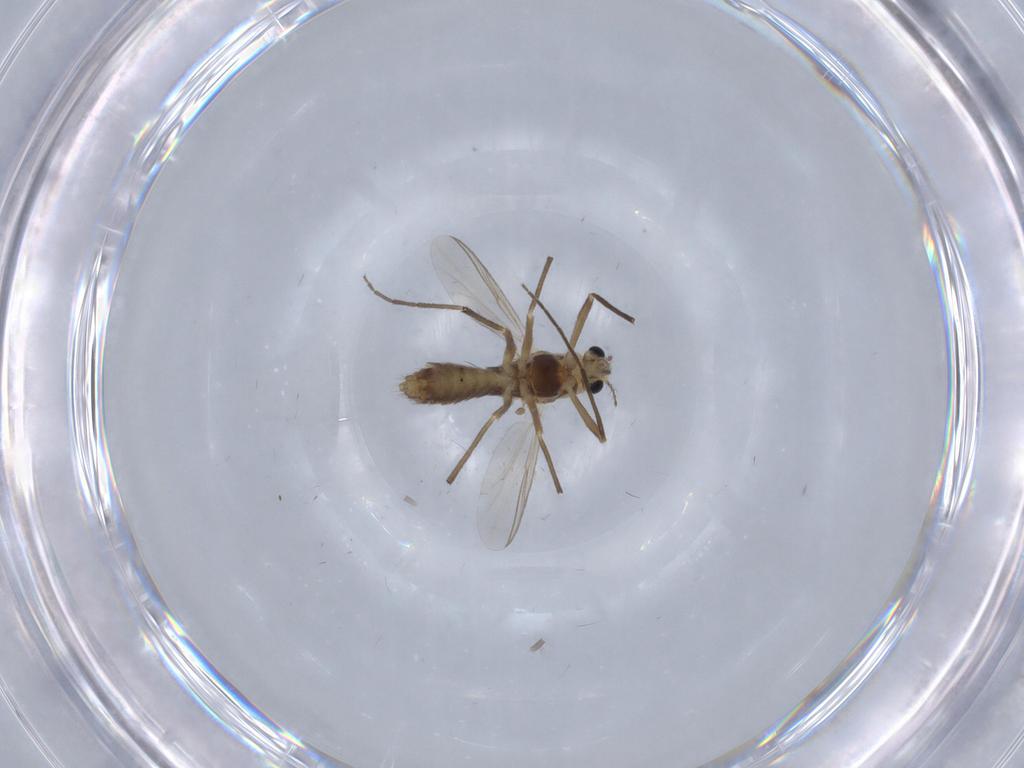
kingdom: Animalia
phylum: Arthropoda
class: Insecta
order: Diptera
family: Chironomidae
